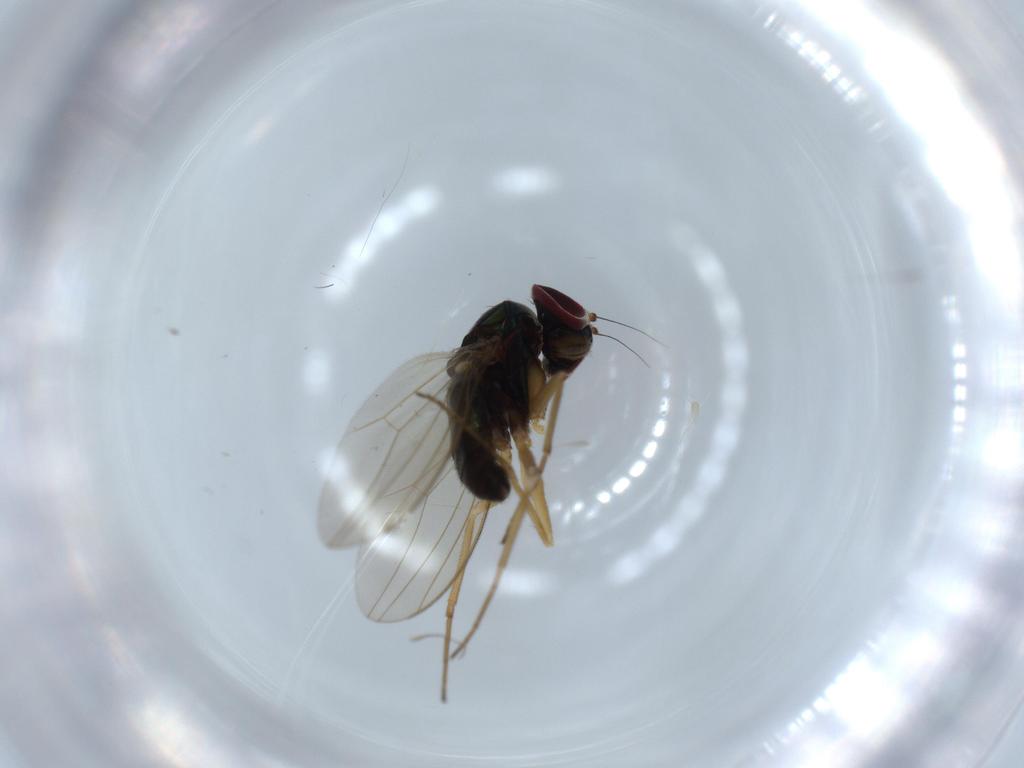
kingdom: Animalia
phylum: Arthropoda
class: Insecta
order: Diptera
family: Dolichopodidae
